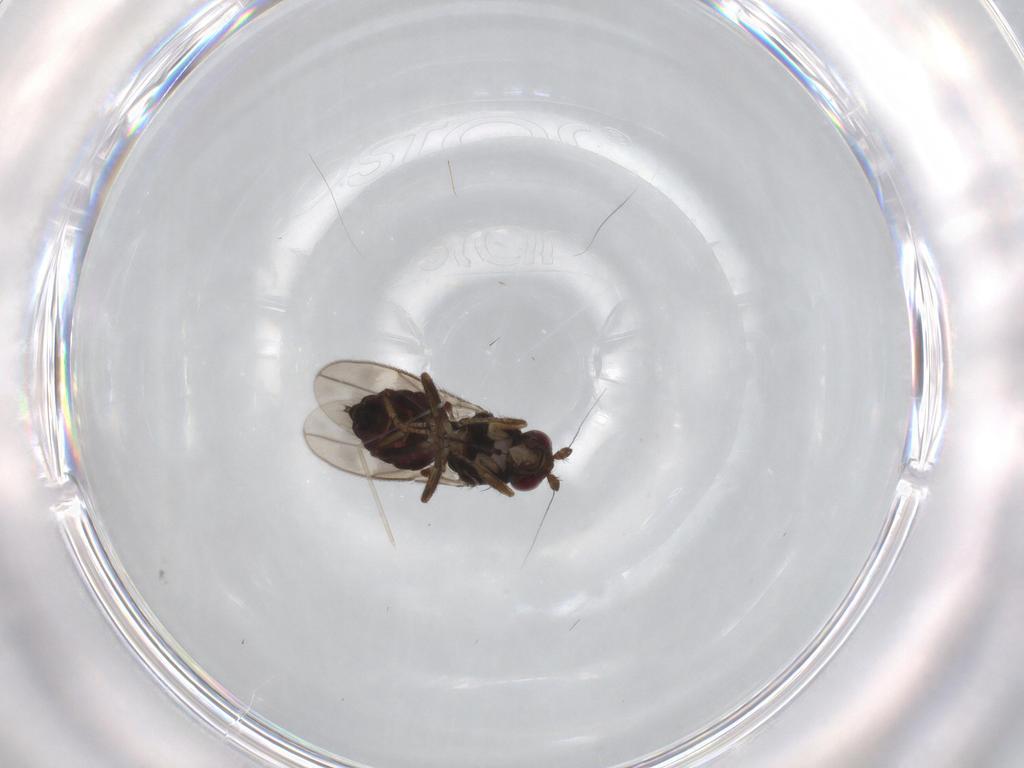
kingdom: Animalia
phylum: Arthropoda
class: Insecta
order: Diptera
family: Sphaeroceridae
